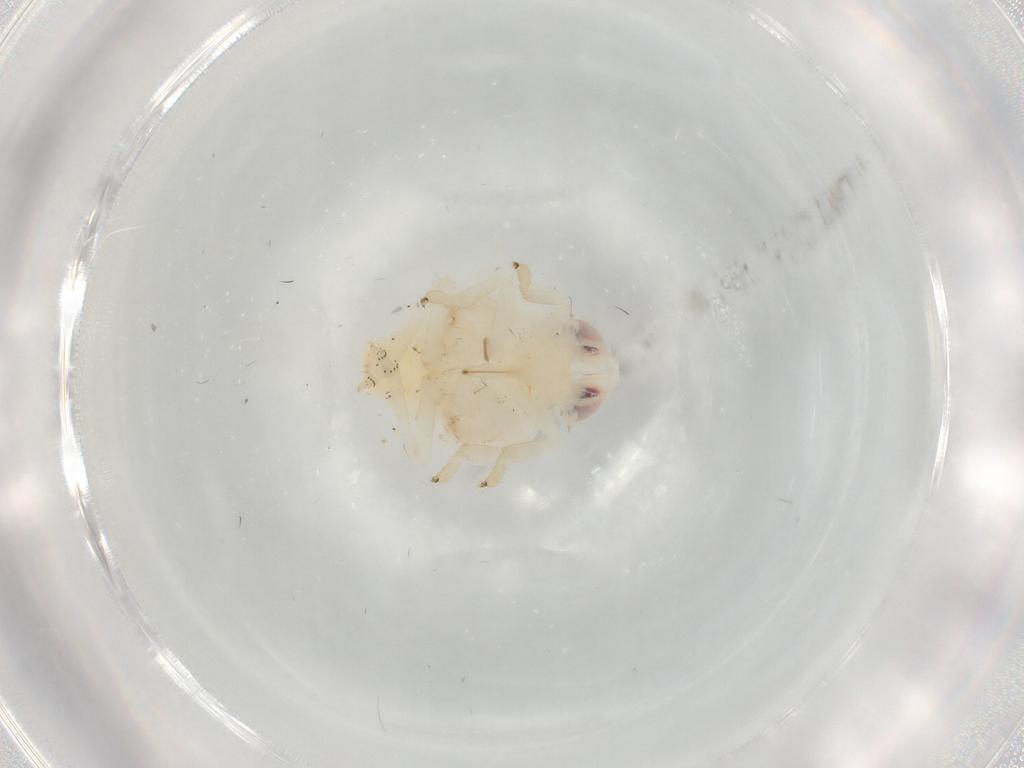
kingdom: Animalia
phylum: Arthropoda
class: Insecta
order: Hemiptera
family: Nogodinidae
